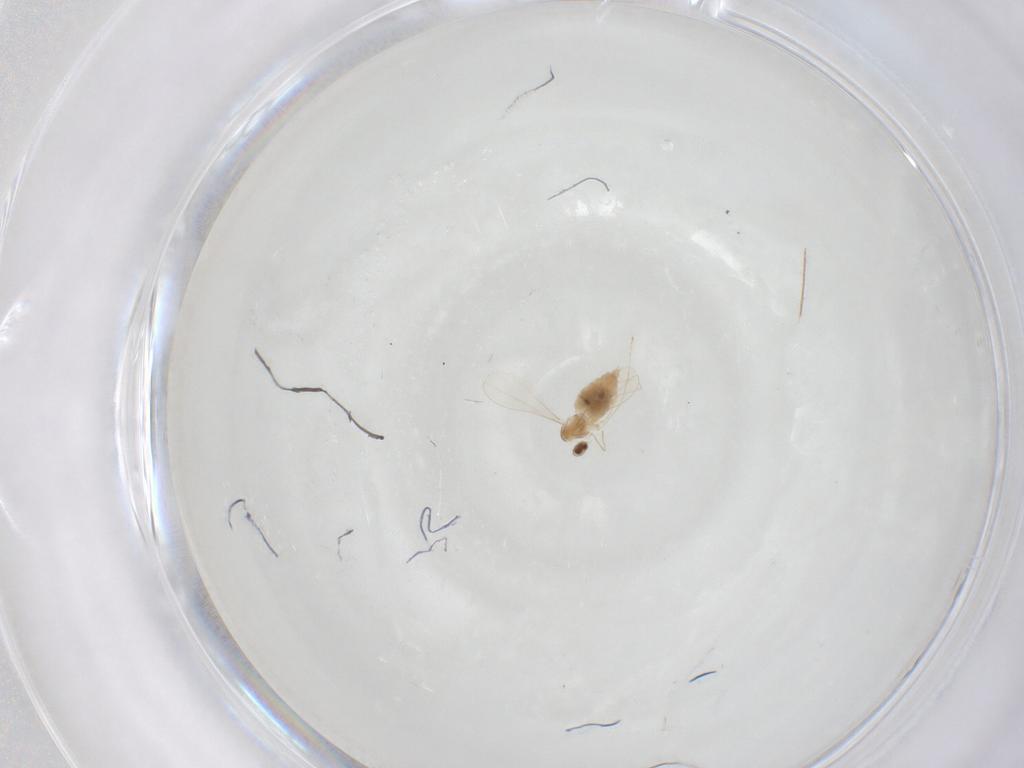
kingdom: Animalia
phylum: Arthropoda
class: Insecta
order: Diptera
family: Cecidomyiidae
